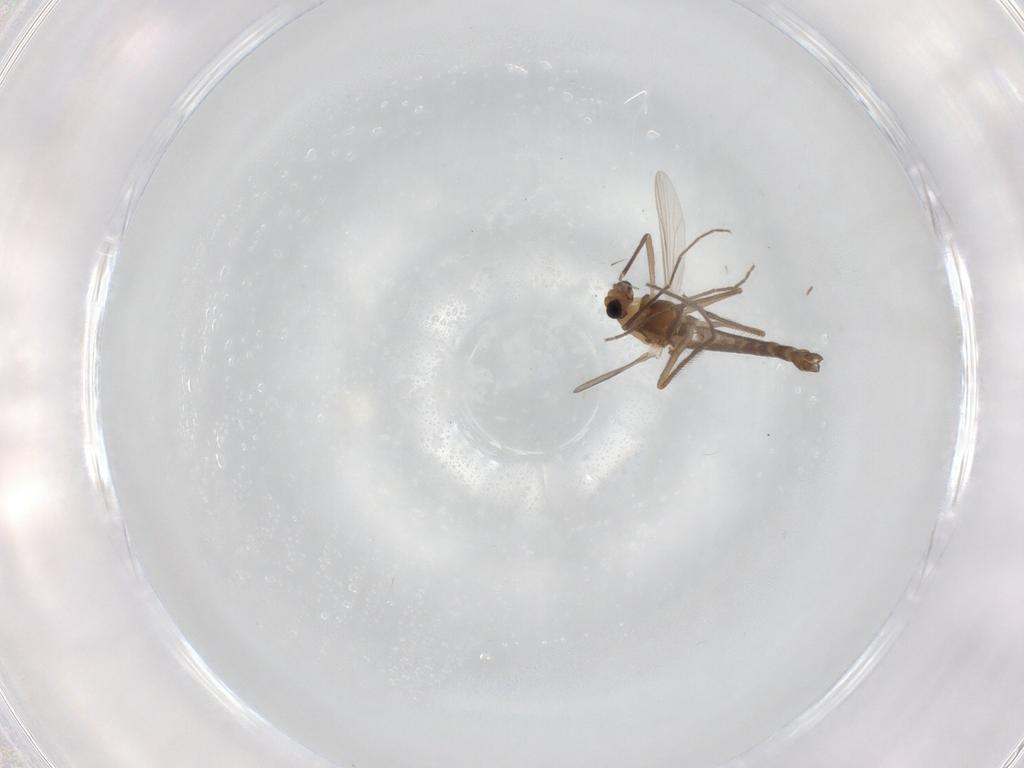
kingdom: Animalia
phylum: Arthropoda
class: Insecta
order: Diptera
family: Chironomidae
